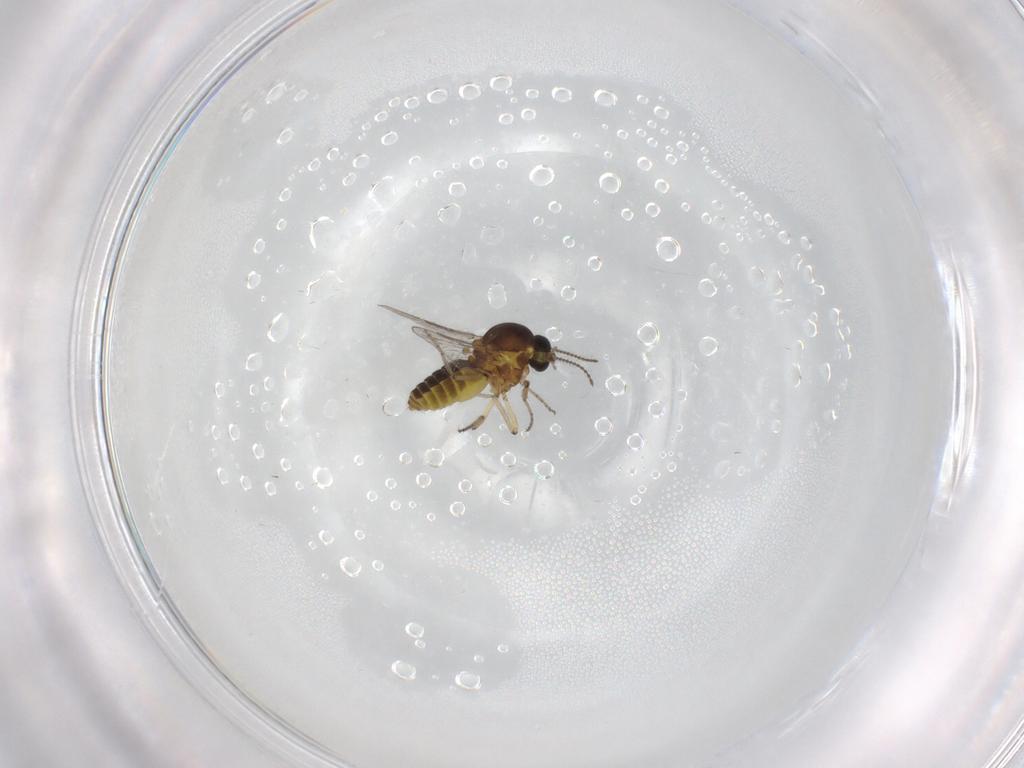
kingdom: Animalia
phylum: Arthropoda
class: Insecta
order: Diptera
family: Ceratopogonidae
